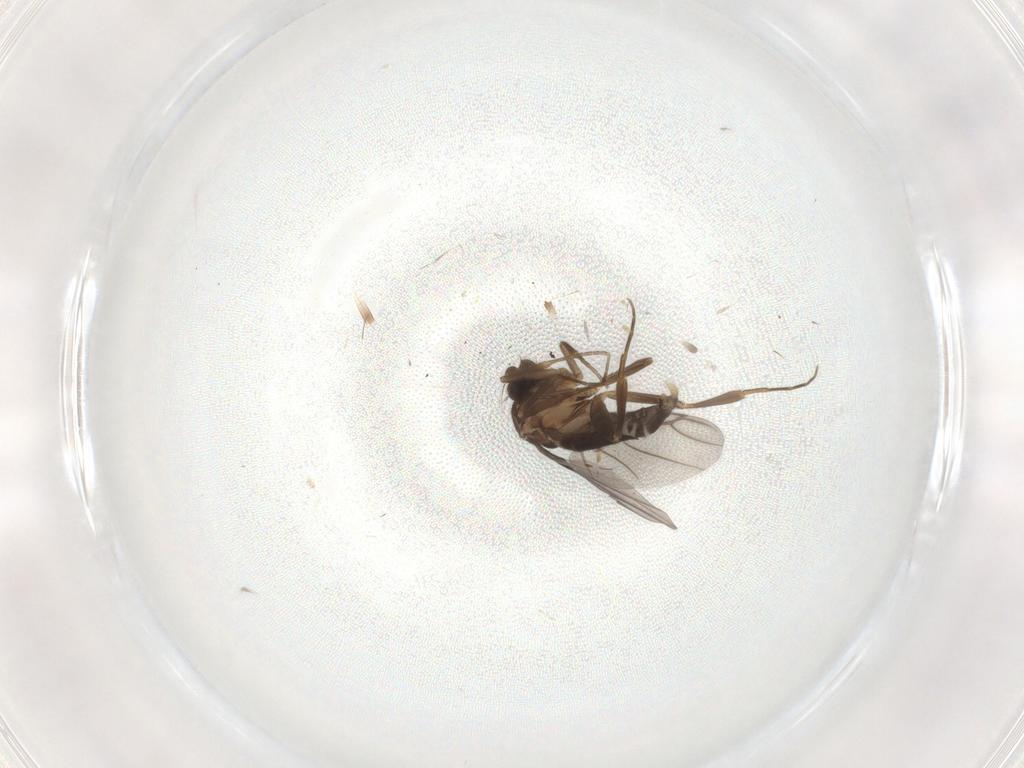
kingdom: Animalia
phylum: Arthropoda
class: Insecta
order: Diptera
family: Phoridae
